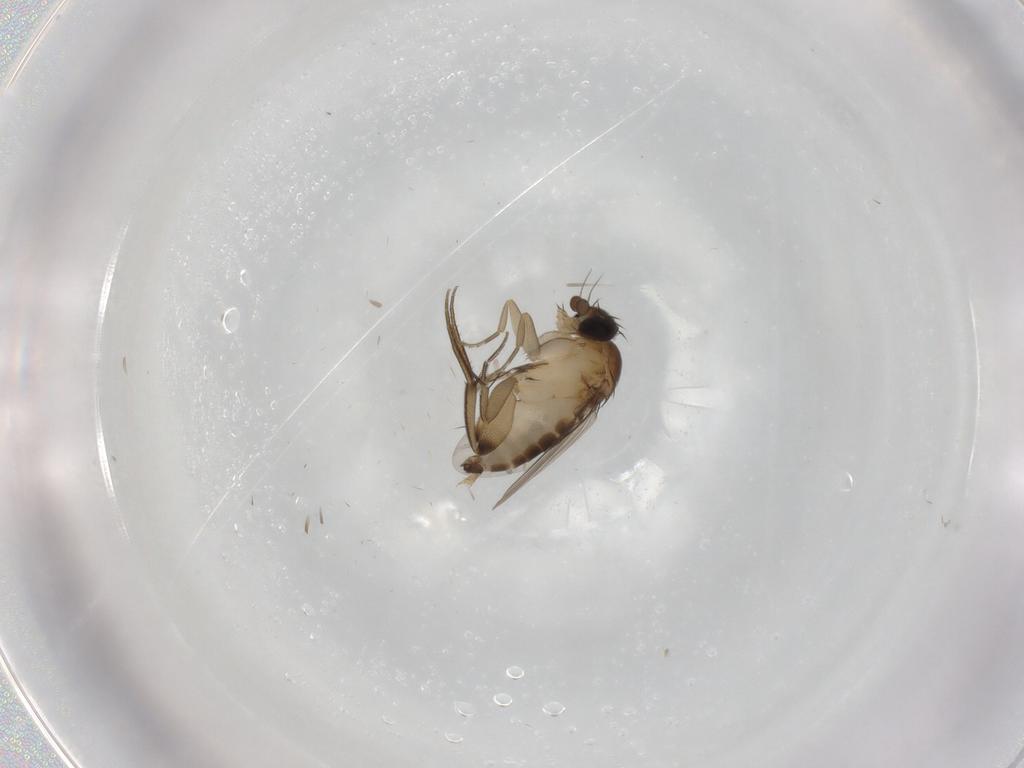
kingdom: Animalia
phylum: Arthropoda
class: Insecta
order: Diptera
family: Phoridae
